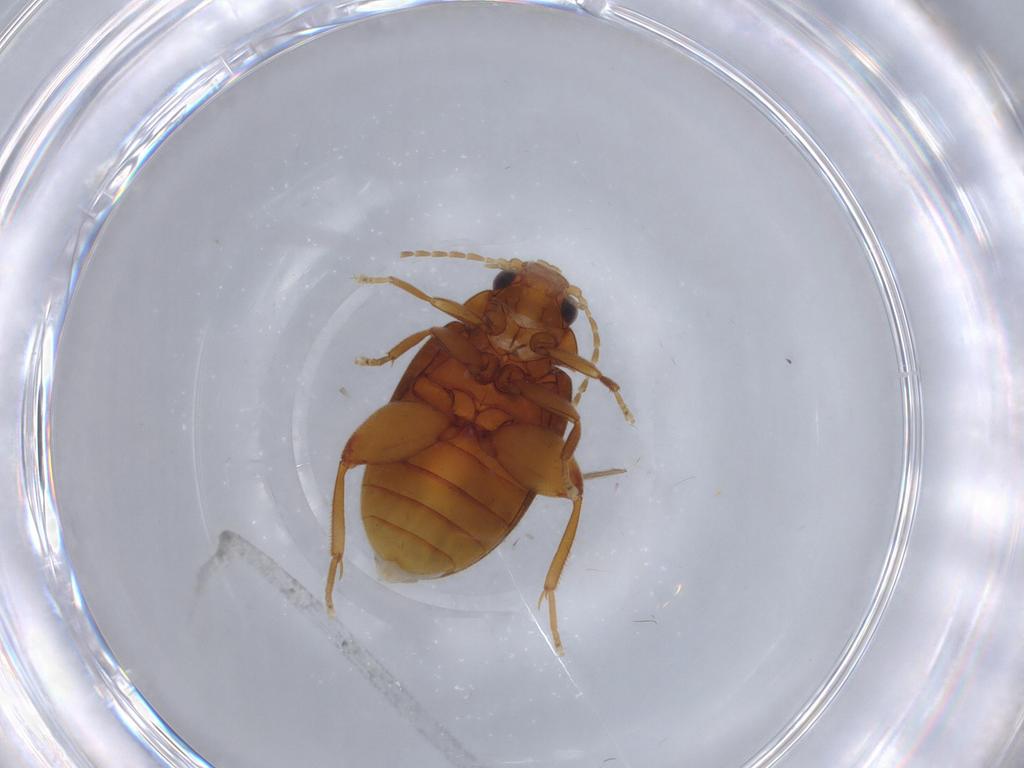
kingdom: Animalia
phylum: Arthropoda
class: Insecta
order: Coleoptera
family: Scirtidae
